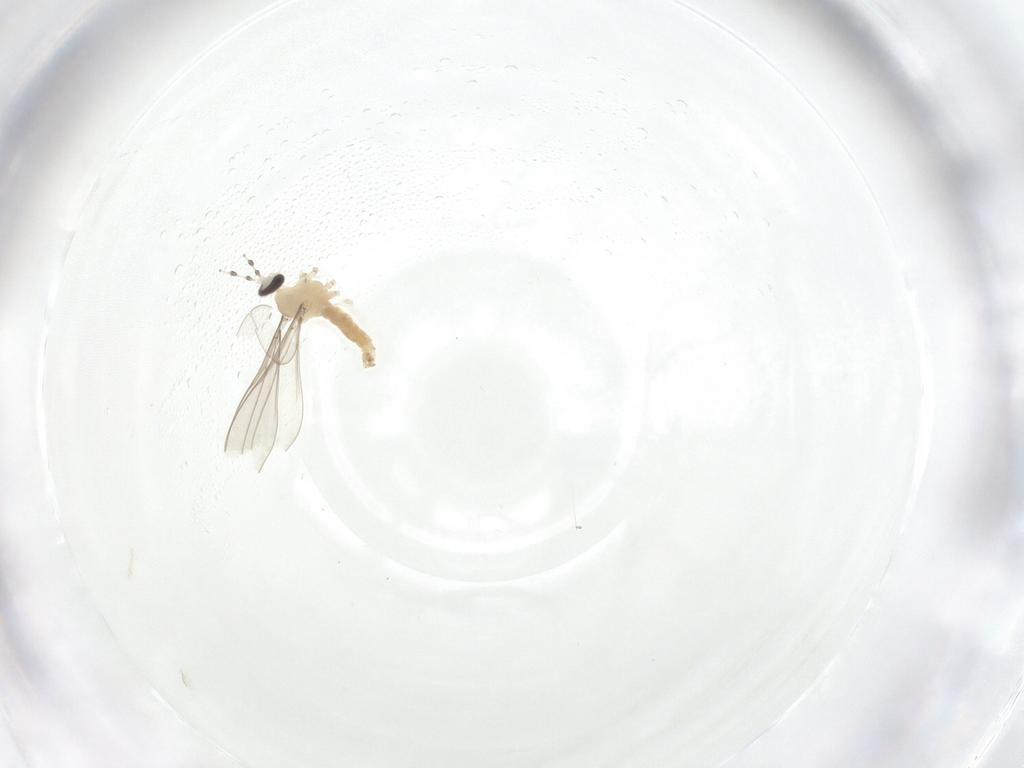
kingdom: Animalia
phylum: Arthropoda
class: Insecta
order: Diptera
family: Cecidomyiidae
